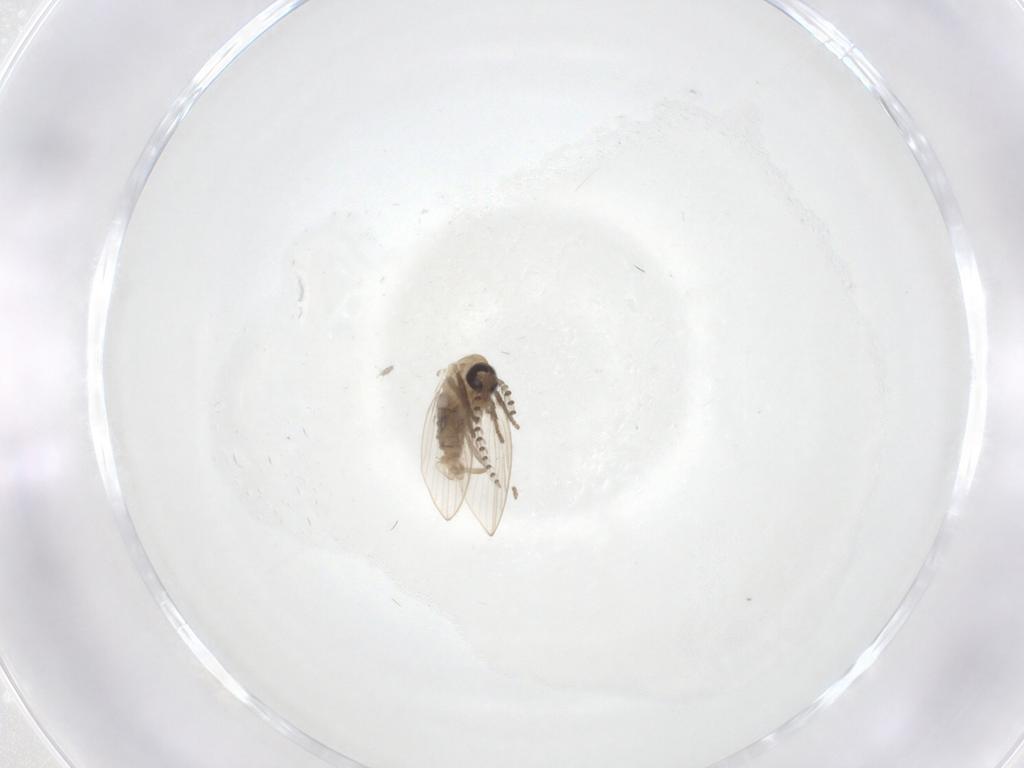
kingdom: Animalia
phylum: Arthropoda
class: Insecta
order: Diptera
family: Psychodidae
